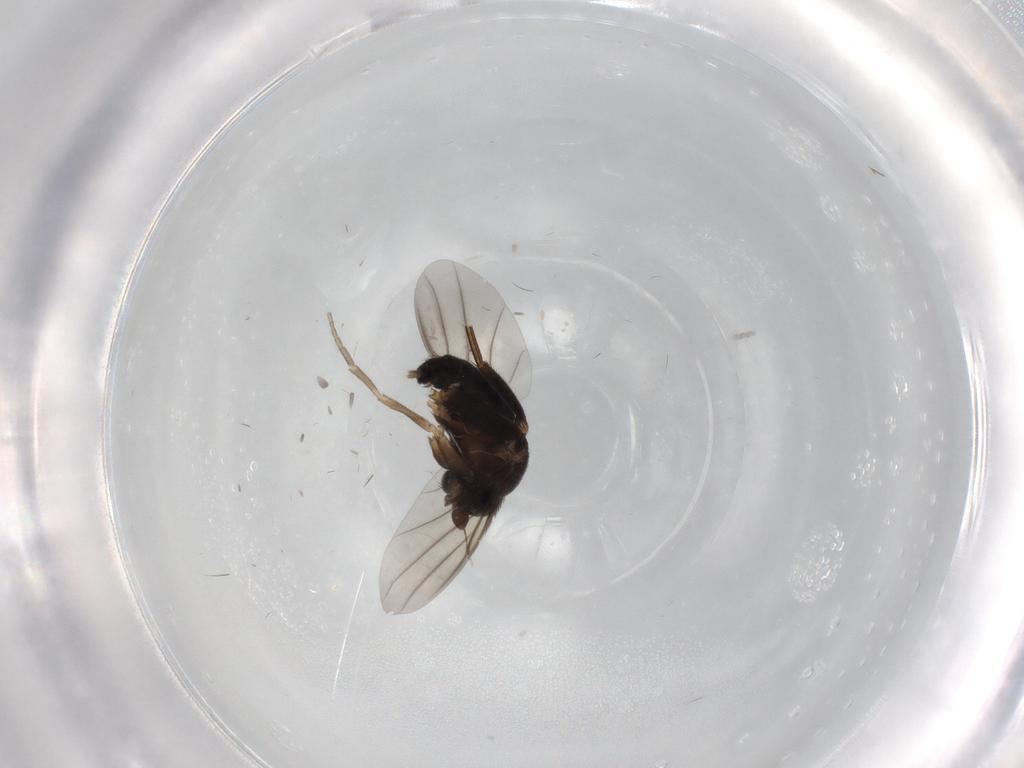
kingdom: Animalia
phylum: Arthropoda
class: Insecta
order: Diptera
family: Phoridae
